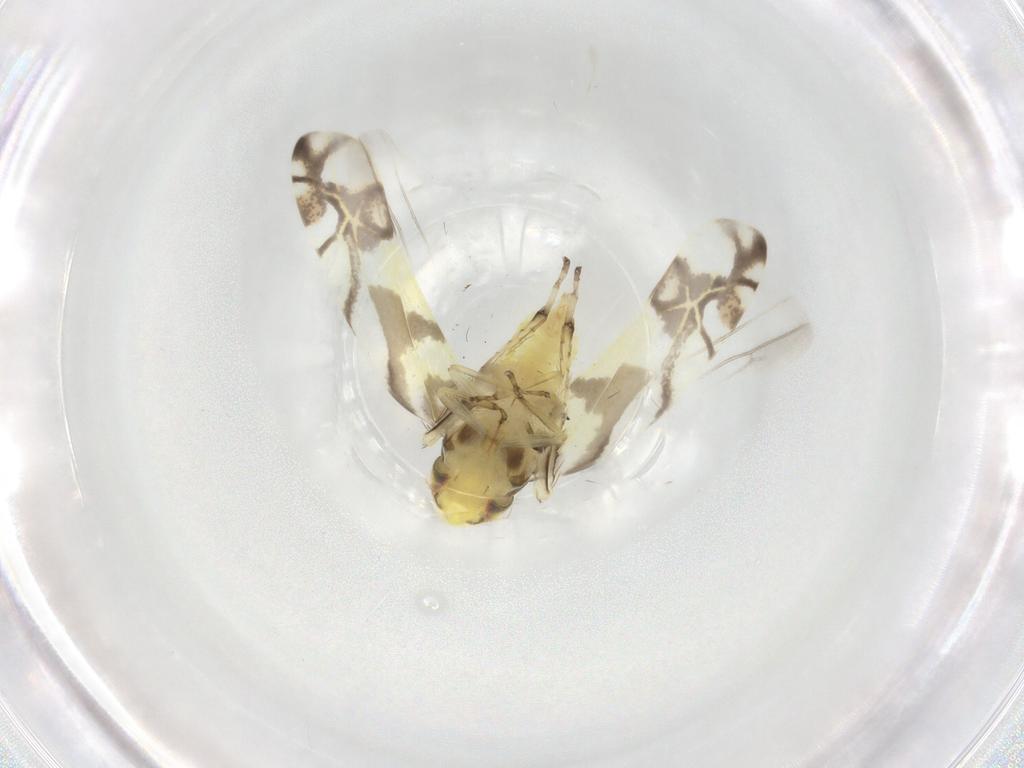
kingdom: Animalia
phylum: Arthropoda
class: Insecta
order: Hemiptera
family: Cicadellidae
